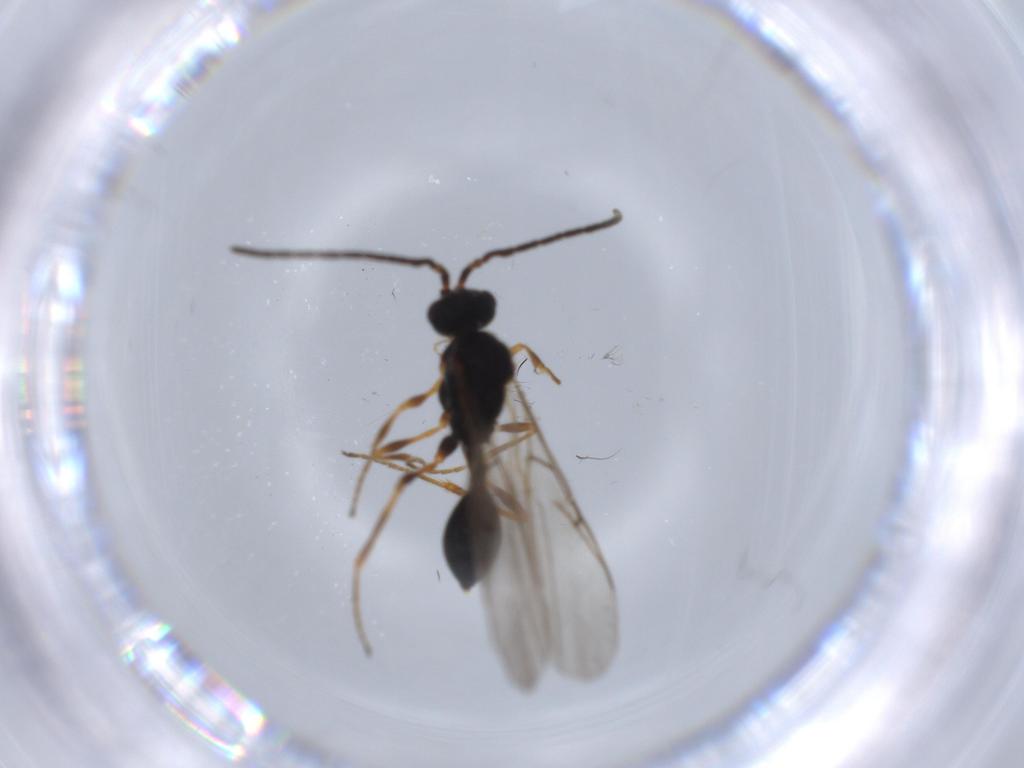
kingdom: Animalia
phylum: Arthropoda
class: Insecta
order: Hymenoptera
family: Diapriidae
